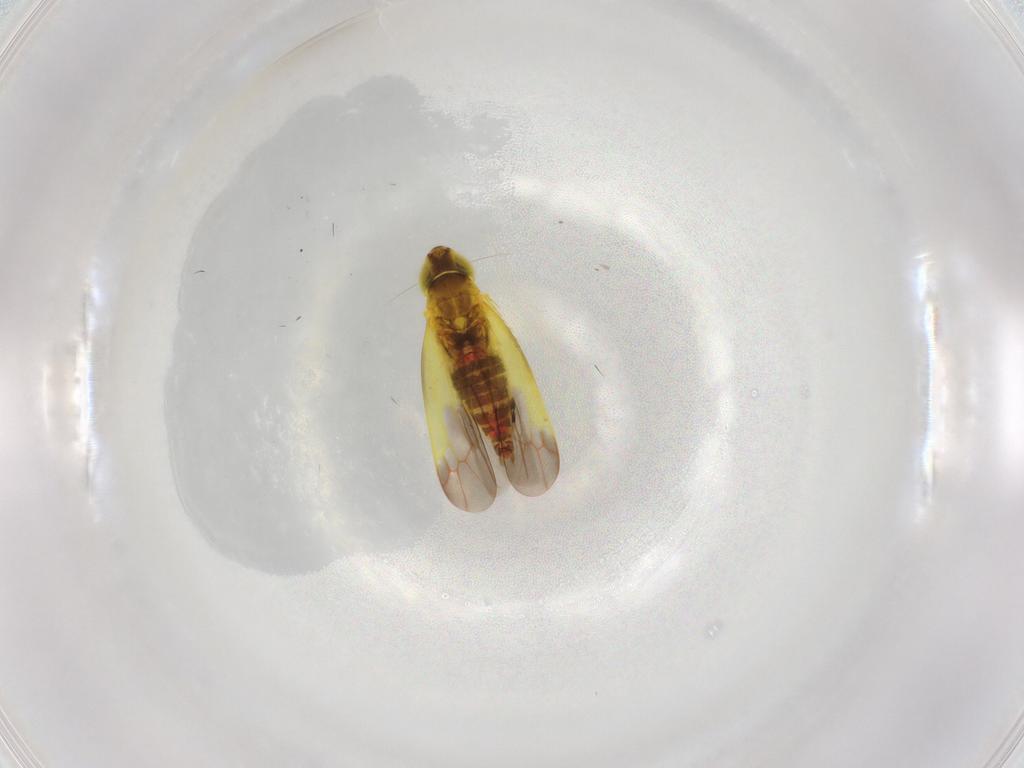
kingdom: Animalia
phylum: Arthropoda
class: Insecta
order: Hemiptera
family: Cicadellidae
